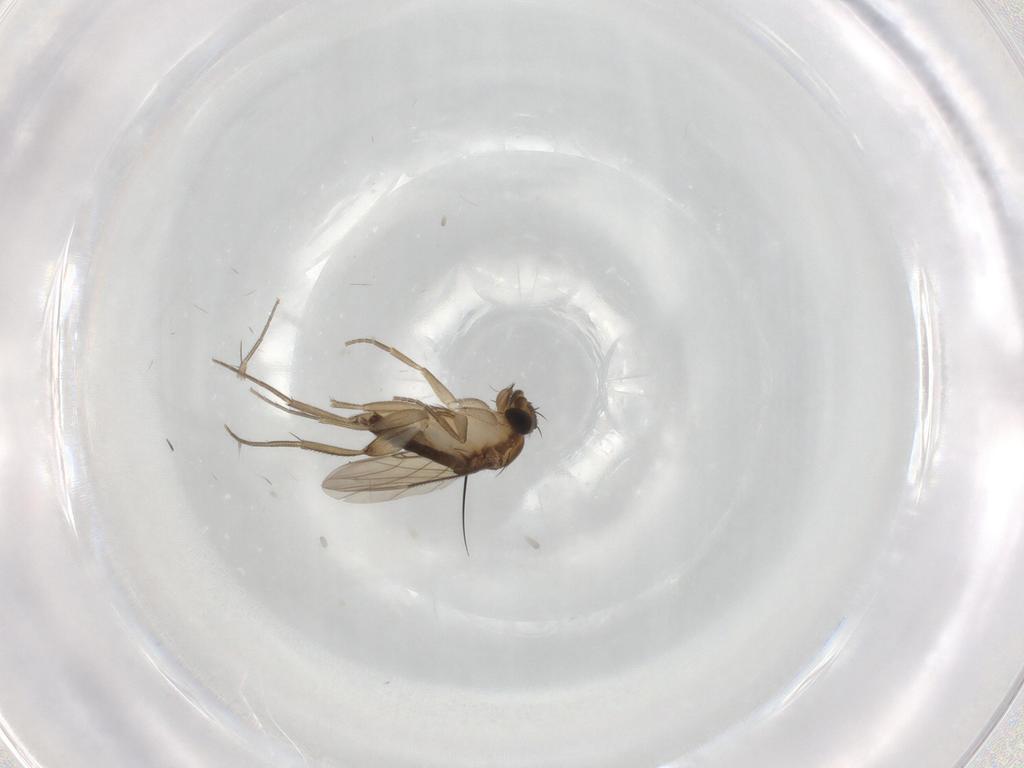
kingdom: Animalia
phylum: Arthropoda
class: Insecta
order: Diptera
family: Phoridae
